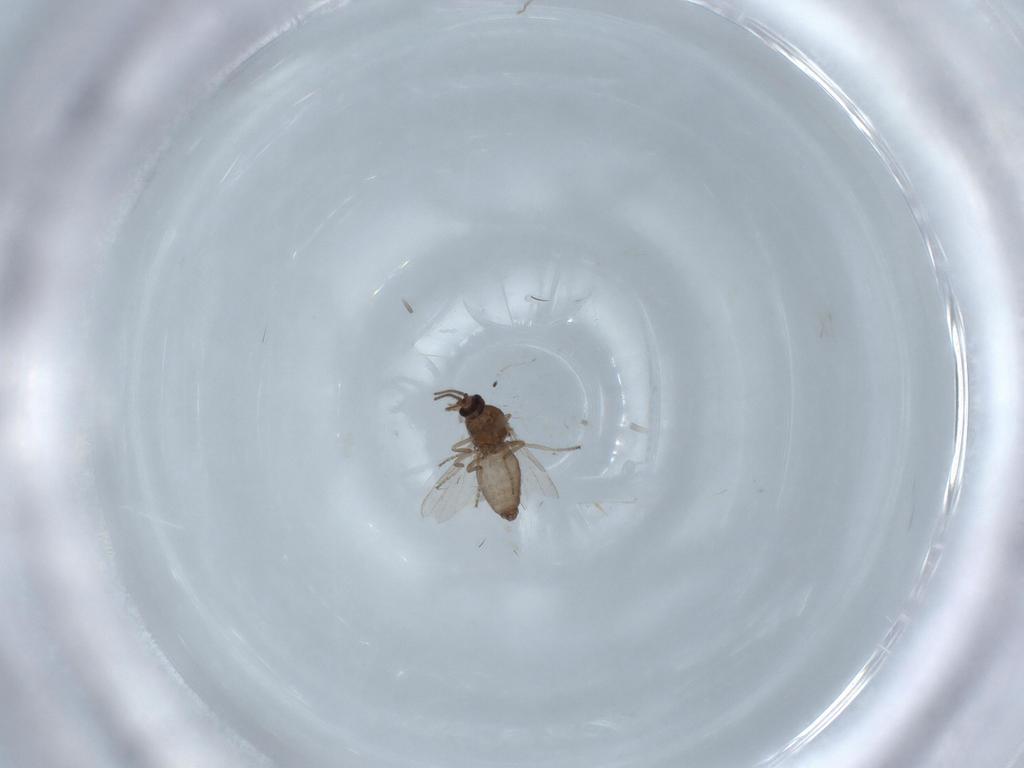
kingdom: Animalia
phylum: Arthropoda
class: Insecta
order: Diptera
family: Ceratopogonidae
